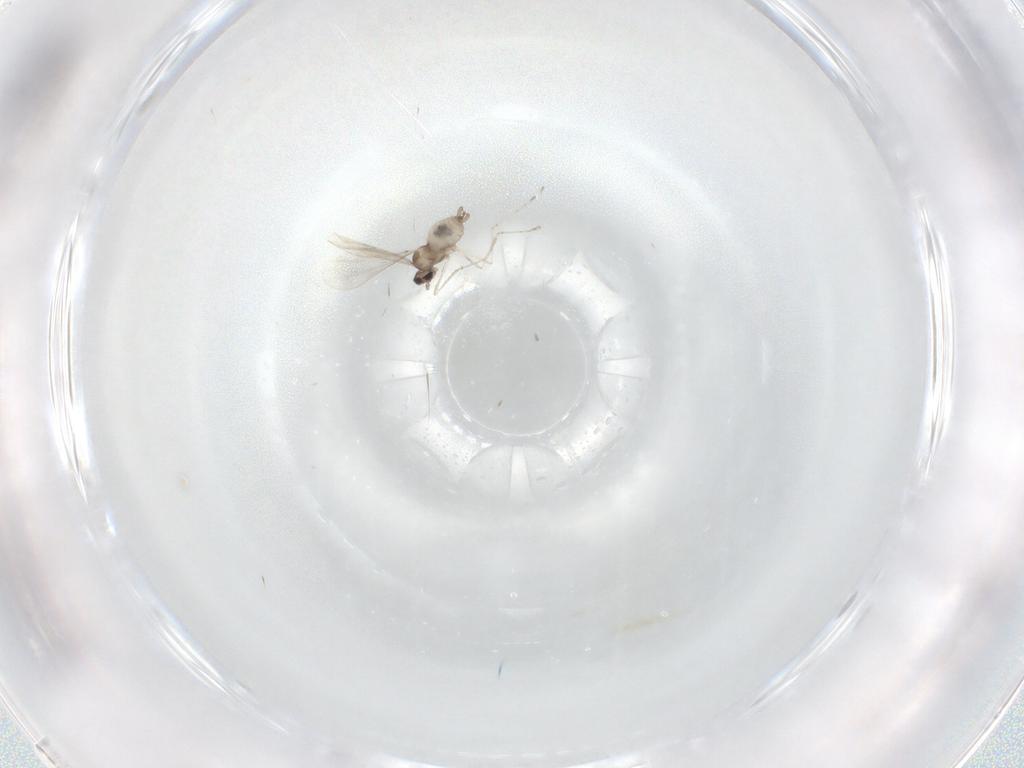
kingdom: Animalia
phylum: Arthropoda
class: Insecta
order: Diptera
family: Cecidomyiidae
